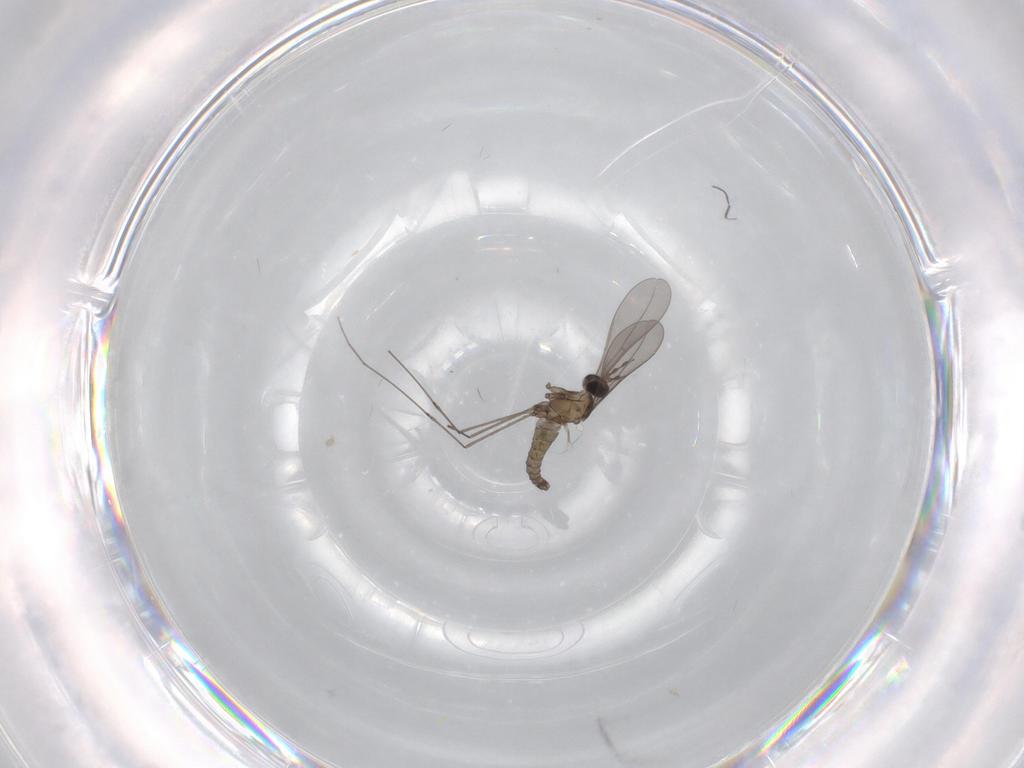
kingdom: Animalia
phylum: Arthropoda
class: Insecta
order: Diptera
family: Cecidomyiidae
